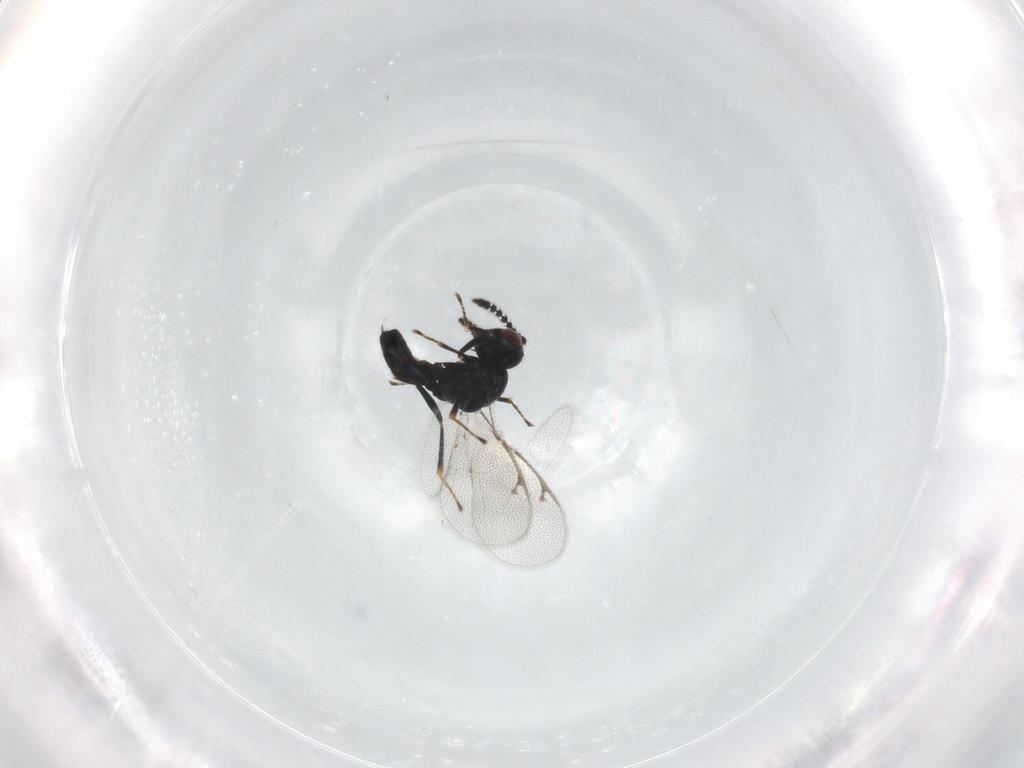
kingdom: Animalia
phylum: Arthropoda
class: Insecta
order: Hymenoptera
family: Pteromalidae
